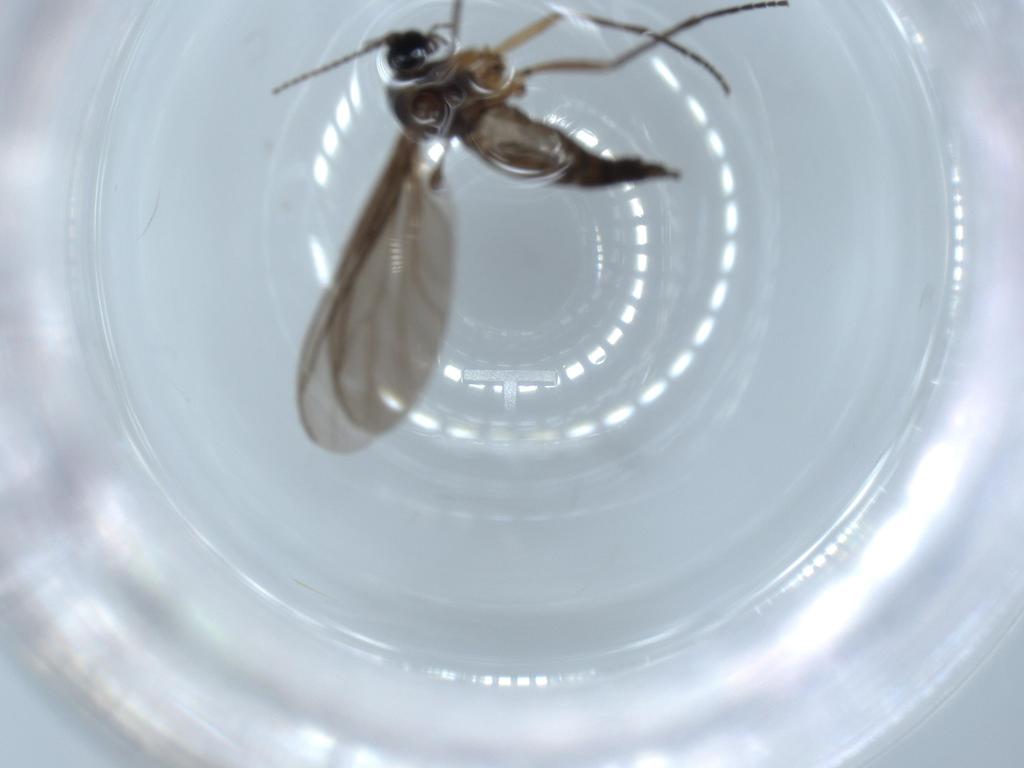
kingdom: Animalia
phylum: Arthropoda
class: Insecta
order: Diptera
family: Sciaridae
